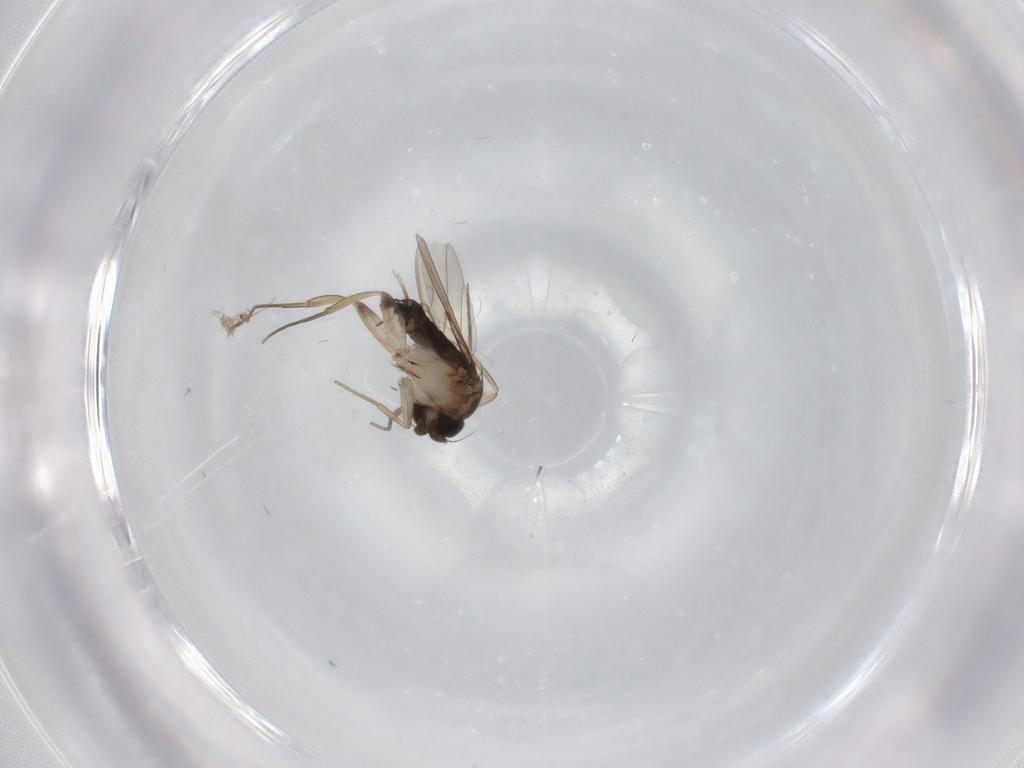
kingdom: Animalia
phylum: Arthropoda
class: Insecta
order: Diptera
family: Phoridae
